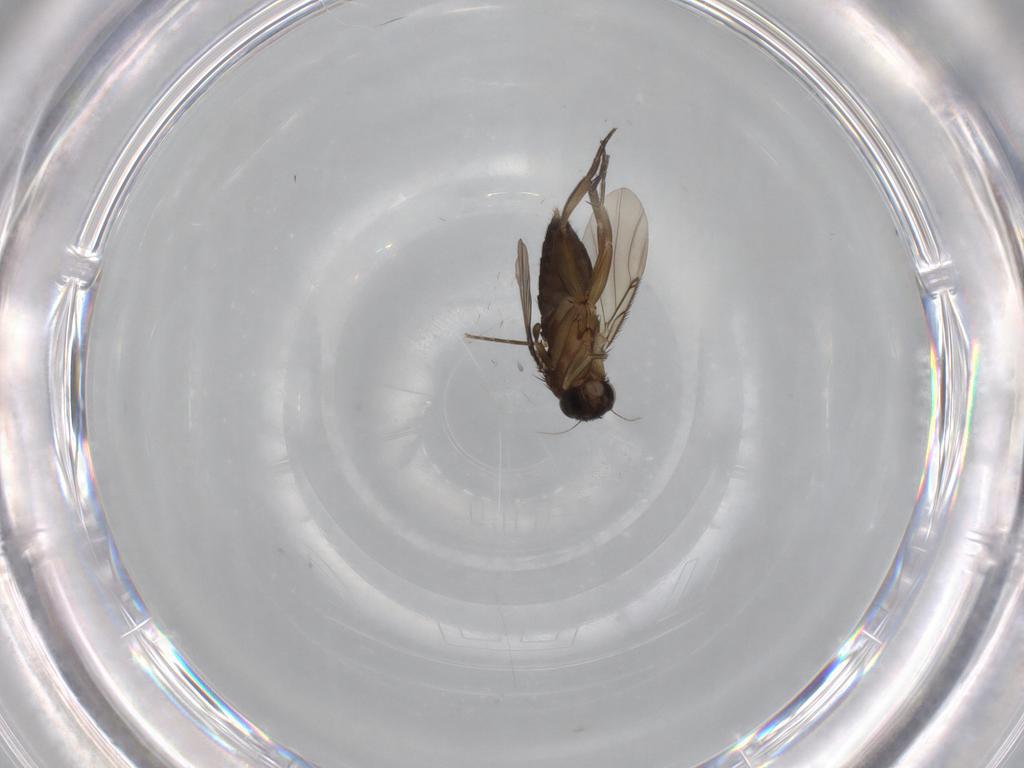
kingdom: Animalia
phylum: Arthropoda
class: Insecta
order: Diptera
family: Phoridae
